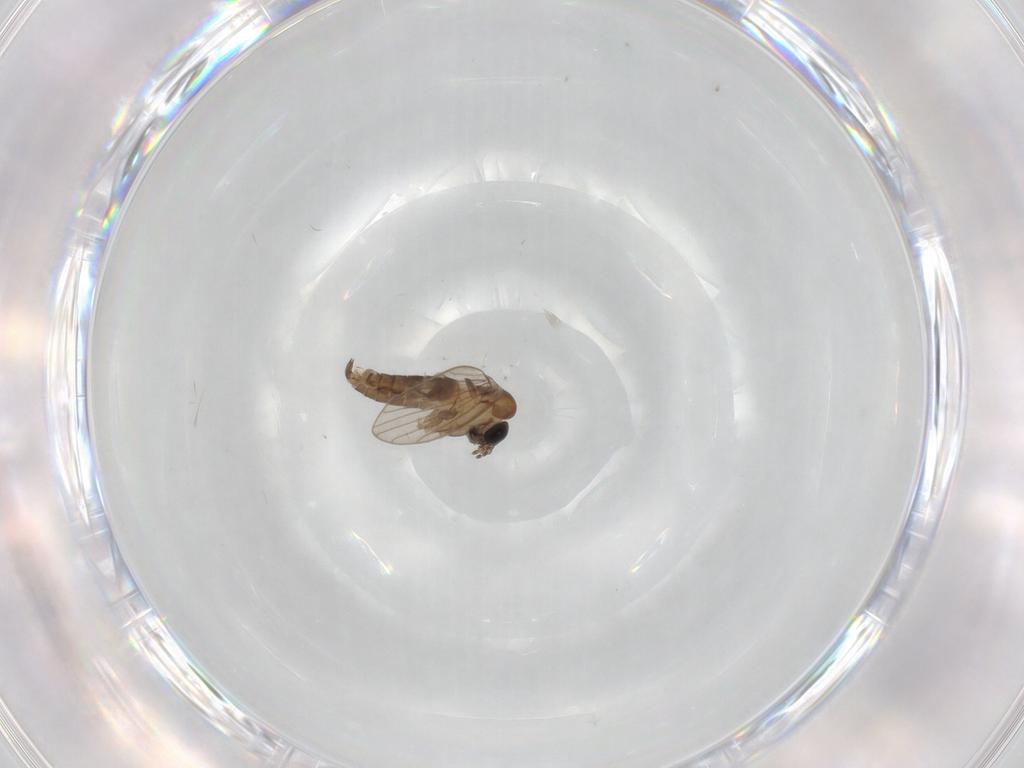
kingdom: Animalia
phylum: Arthropoda
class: Insecta
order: Diptera
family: Psychodidae
